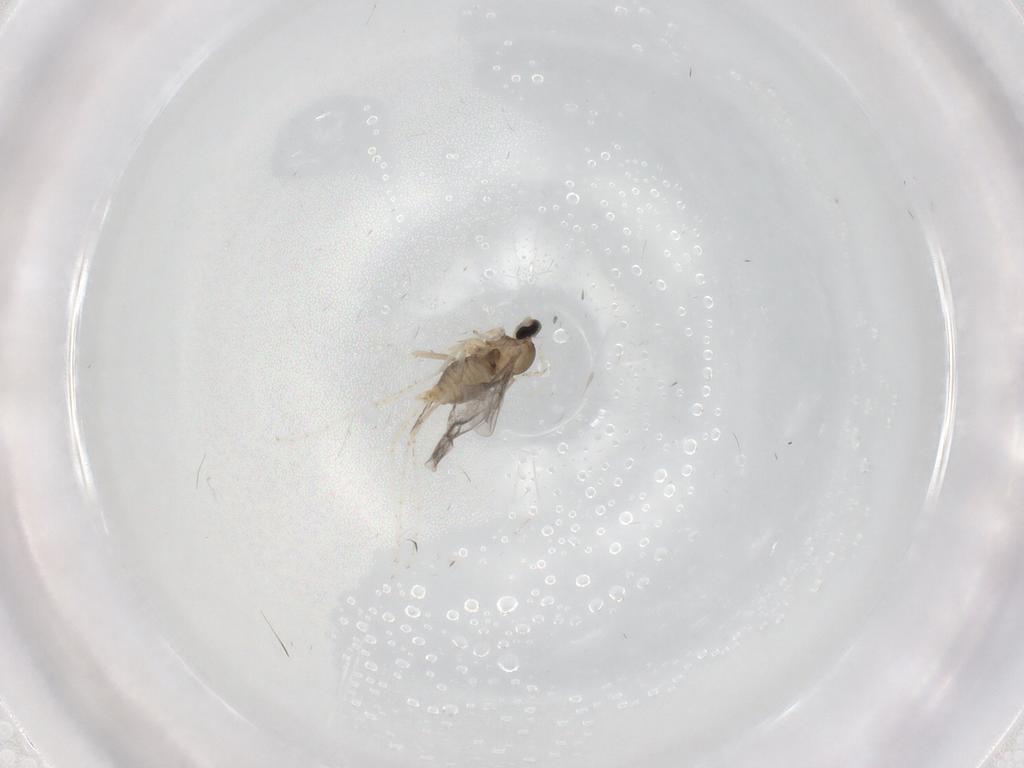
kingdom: Animalia
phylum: Arthropoda
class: Insecta
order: Diptera
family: Cecidomyiidae
